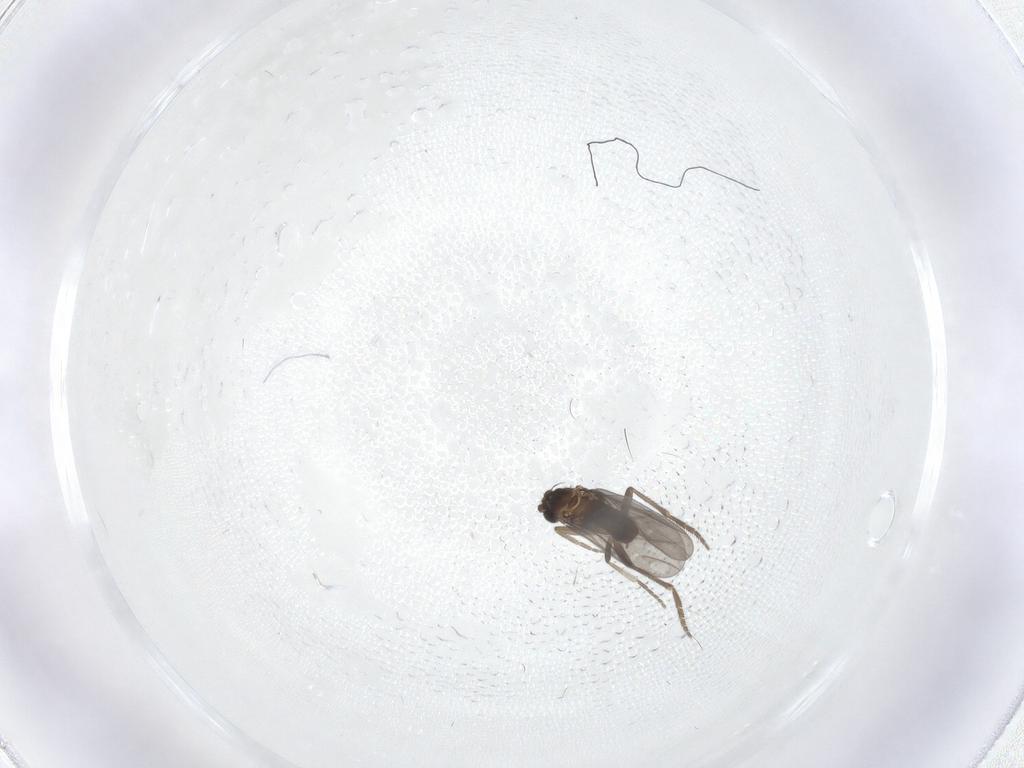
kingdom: Animalia
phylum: Arthropoda
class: Insecta
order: Diptera
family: Phoridae
